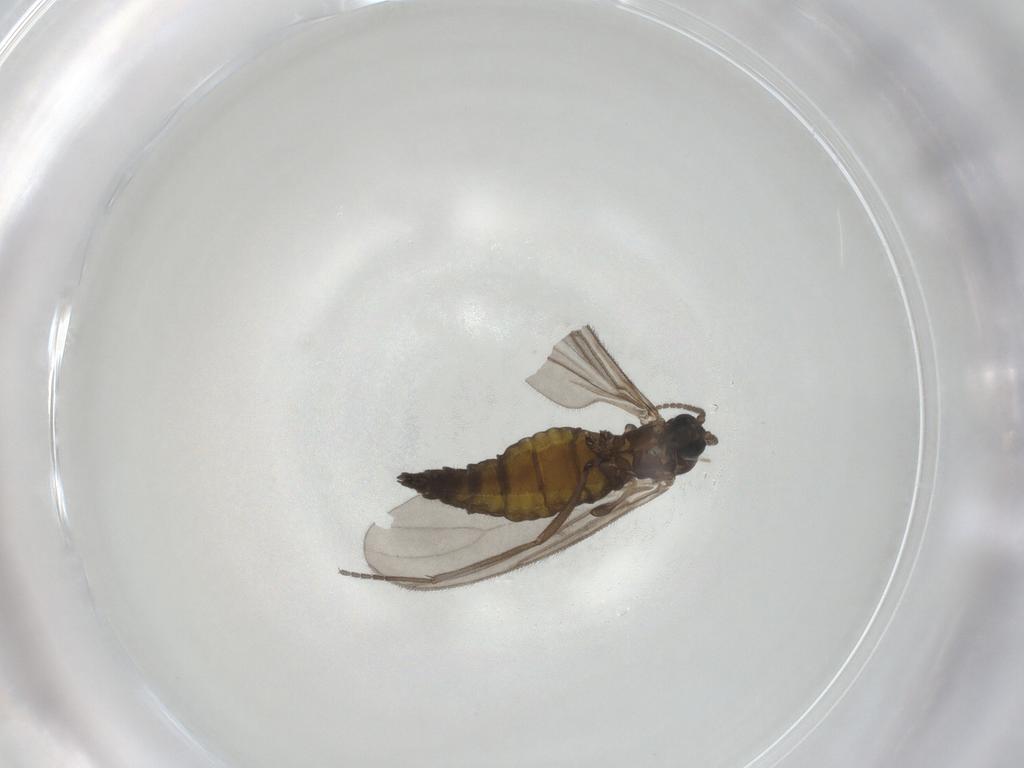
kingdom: Animalia
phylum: Arthropoda
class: Insecta
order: Diptera
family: Sciaridae
